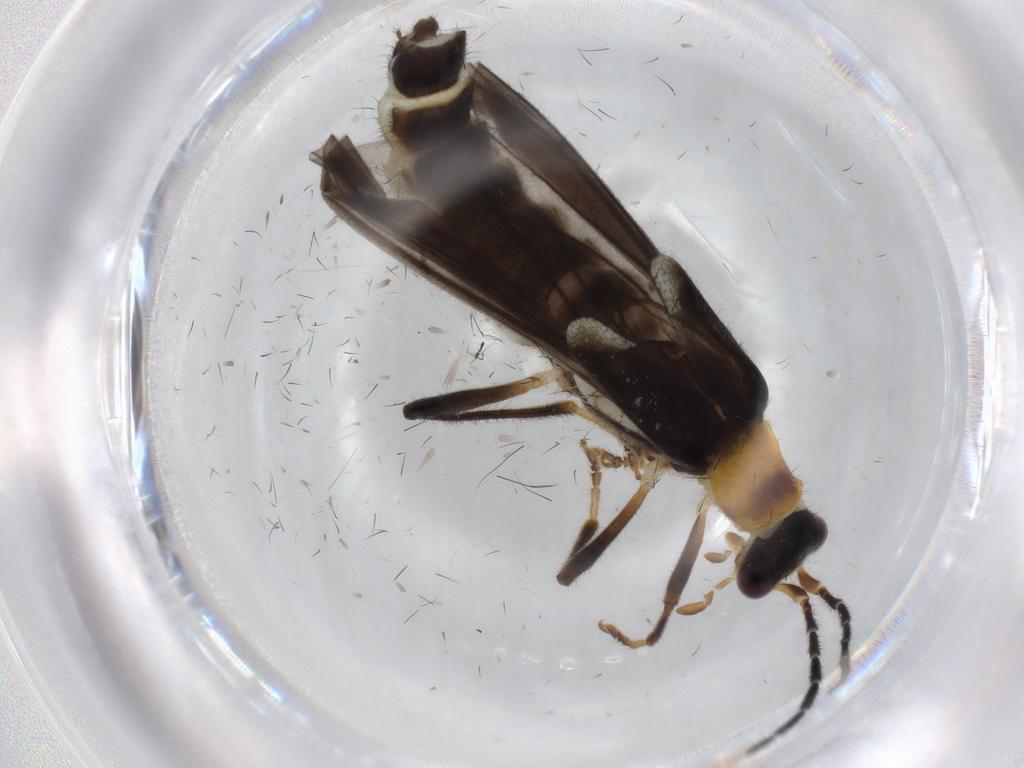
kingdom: Animalia
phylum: Arthropoda
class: Insecta
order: Coleoptera
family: Cantharidae
